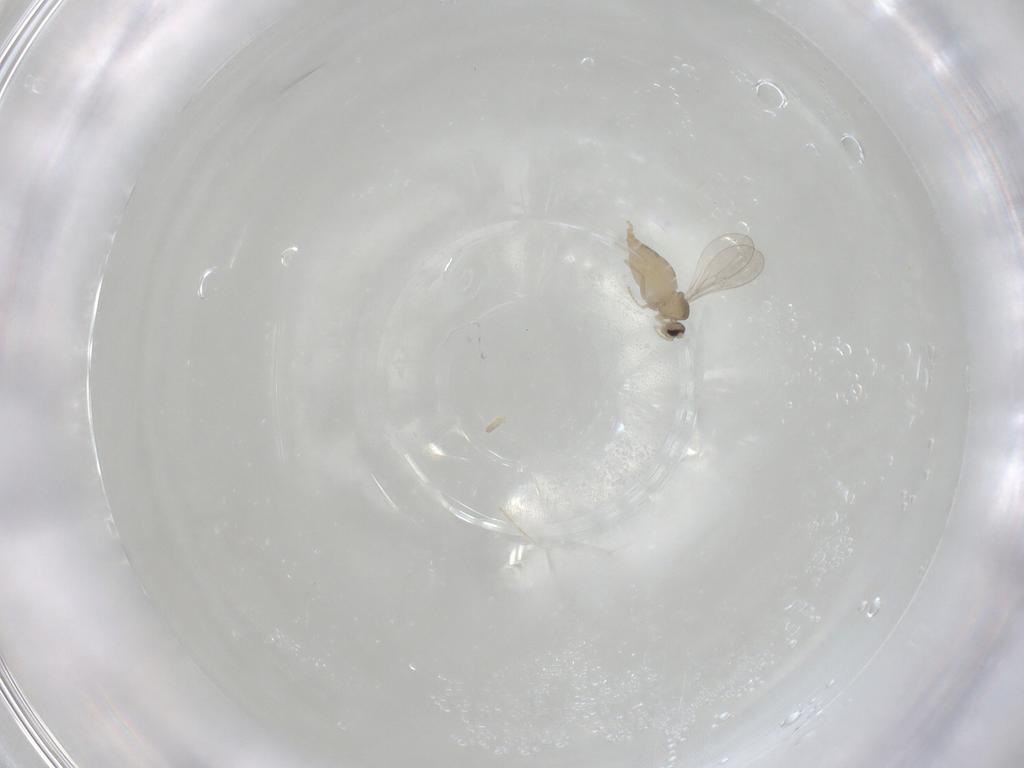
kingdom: Animalia
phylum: Arthropoda
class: Insecta
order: Diptera
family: Cecidomyiidae
